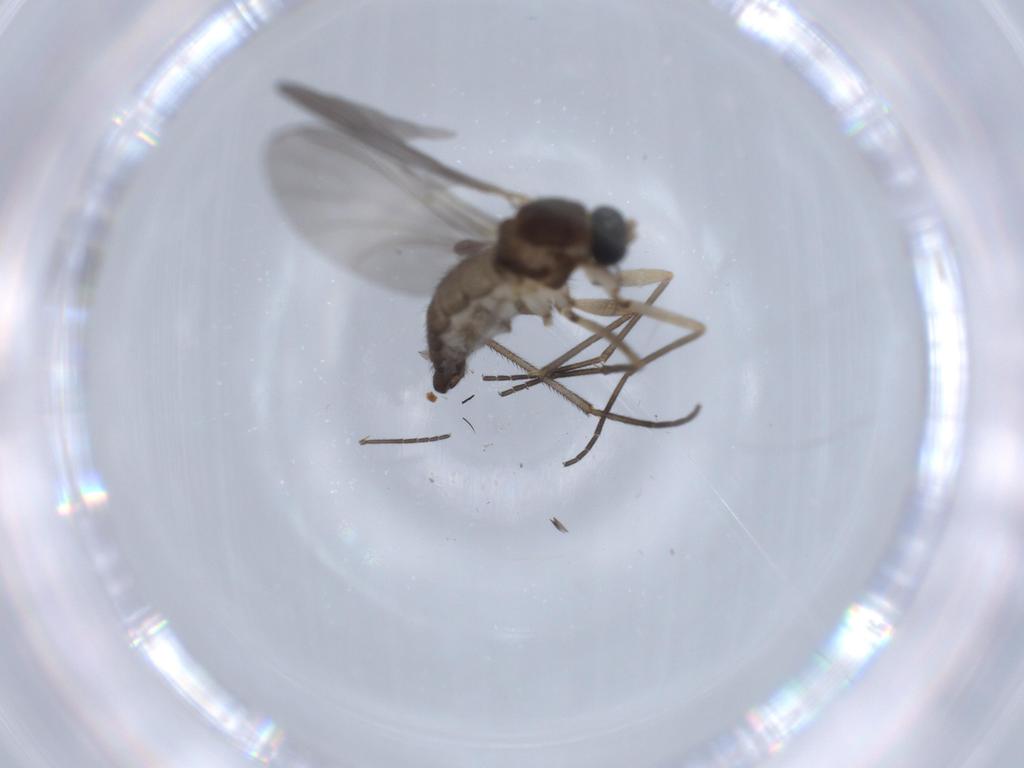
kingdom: Animalia
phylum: Arthropoda
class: Insecta
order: Diptera
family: Sciaridae
